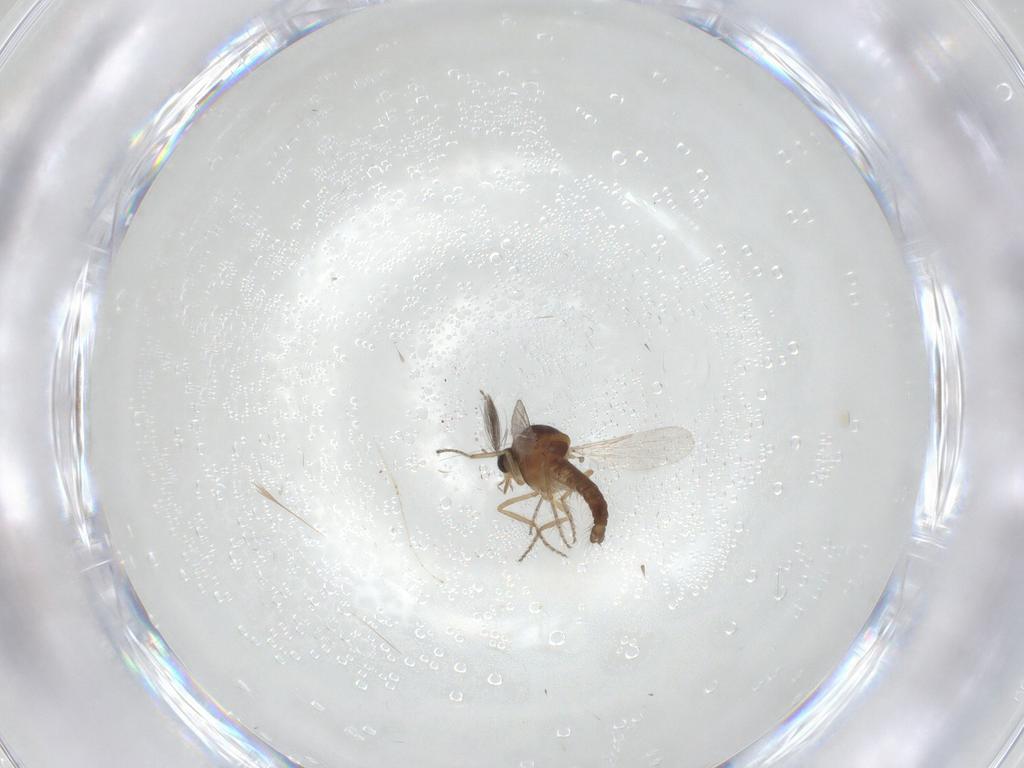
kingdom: Animalia
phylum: Arthropoda
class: Insecta
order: Diptera
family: Ceratopogonidae
